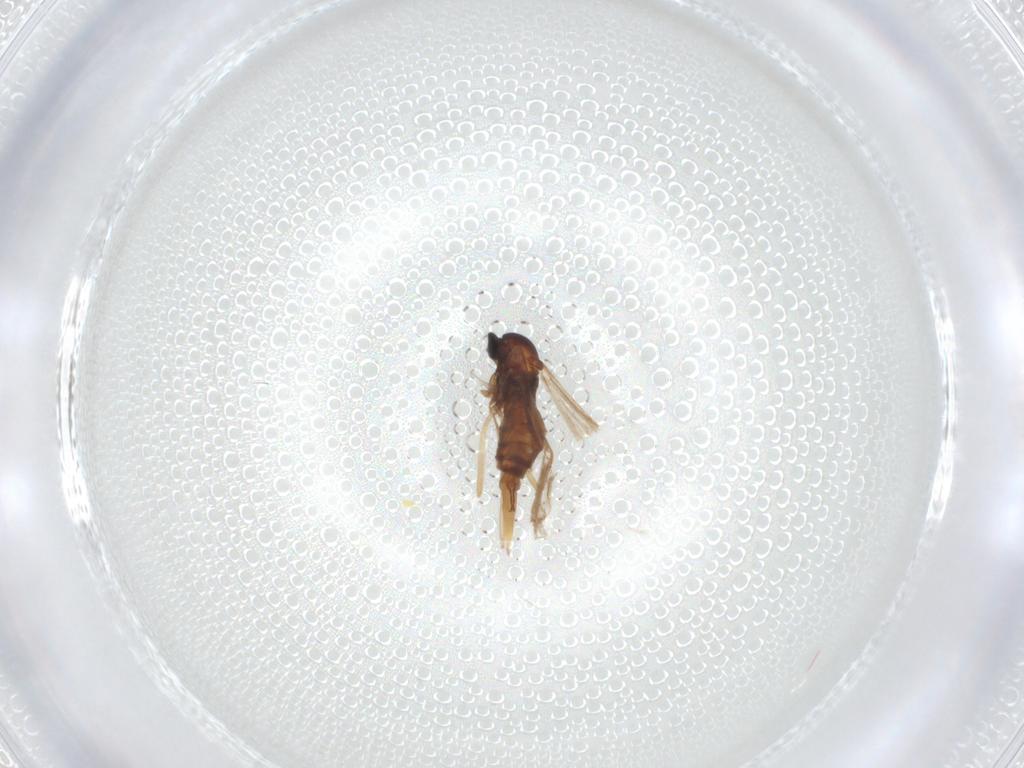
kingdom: Animalia
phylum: Arthropoda
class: Insecta
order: Diptera
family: Cecidomyiidae
